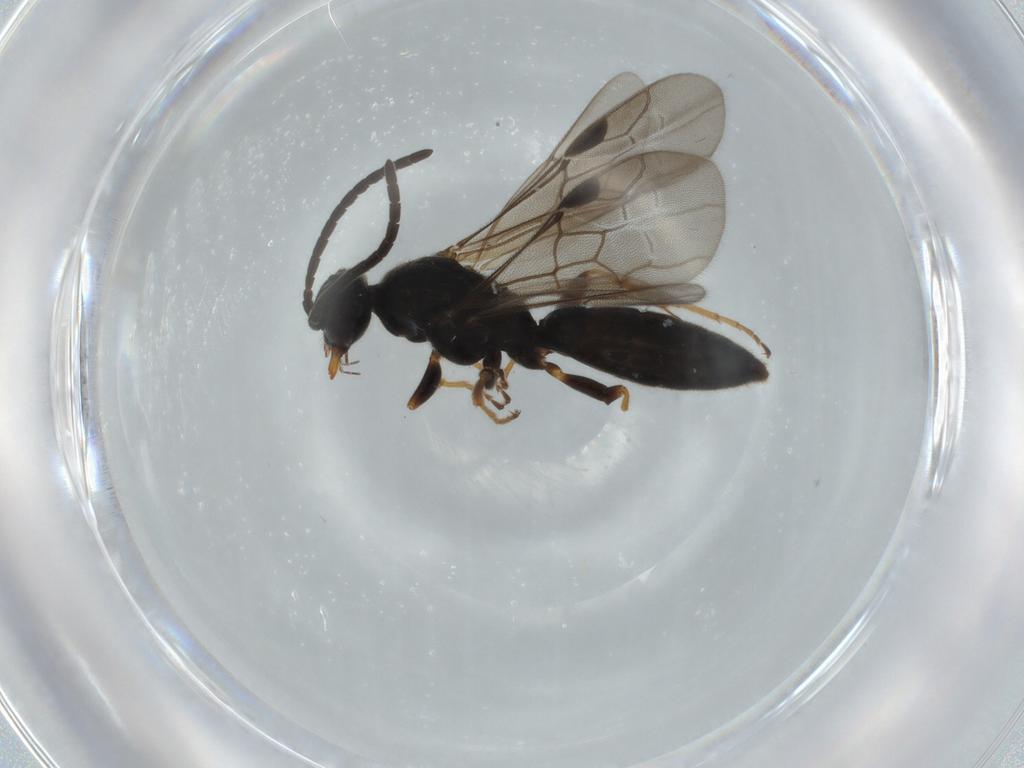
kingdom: Animalia
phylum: Arthropoda
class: Insecta
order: Hymenoptera
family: Sierolomorphidae
